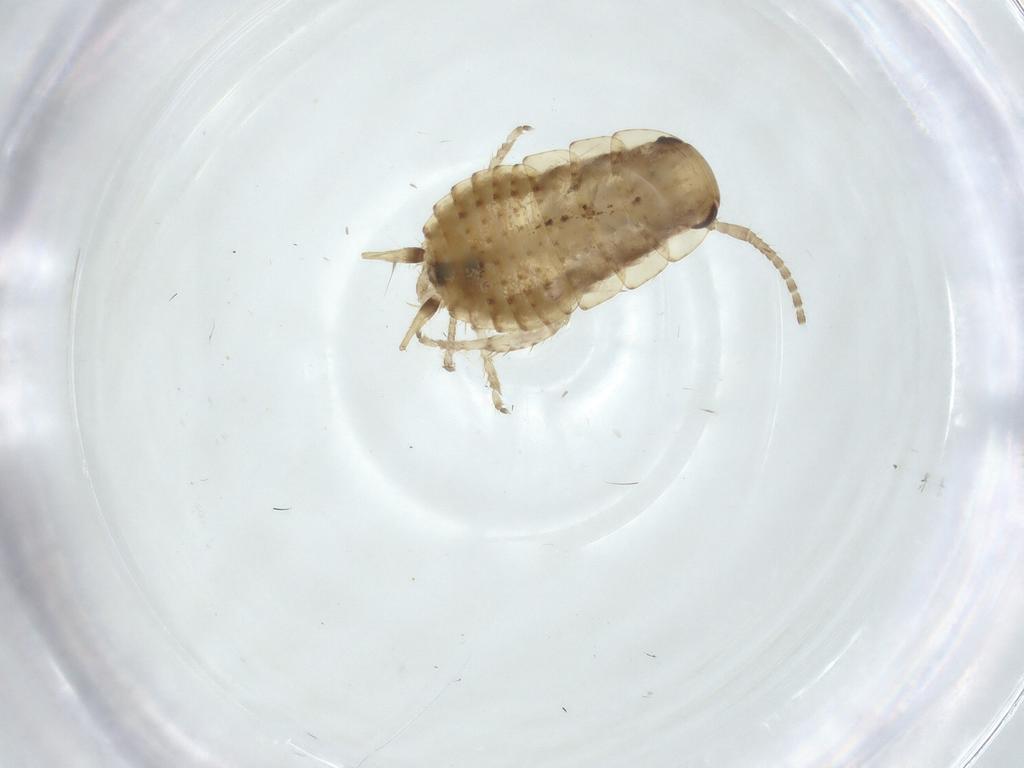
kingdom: Animalia
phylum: Arthropoda
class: Insecta
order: Blattodea
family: Blaberidae
